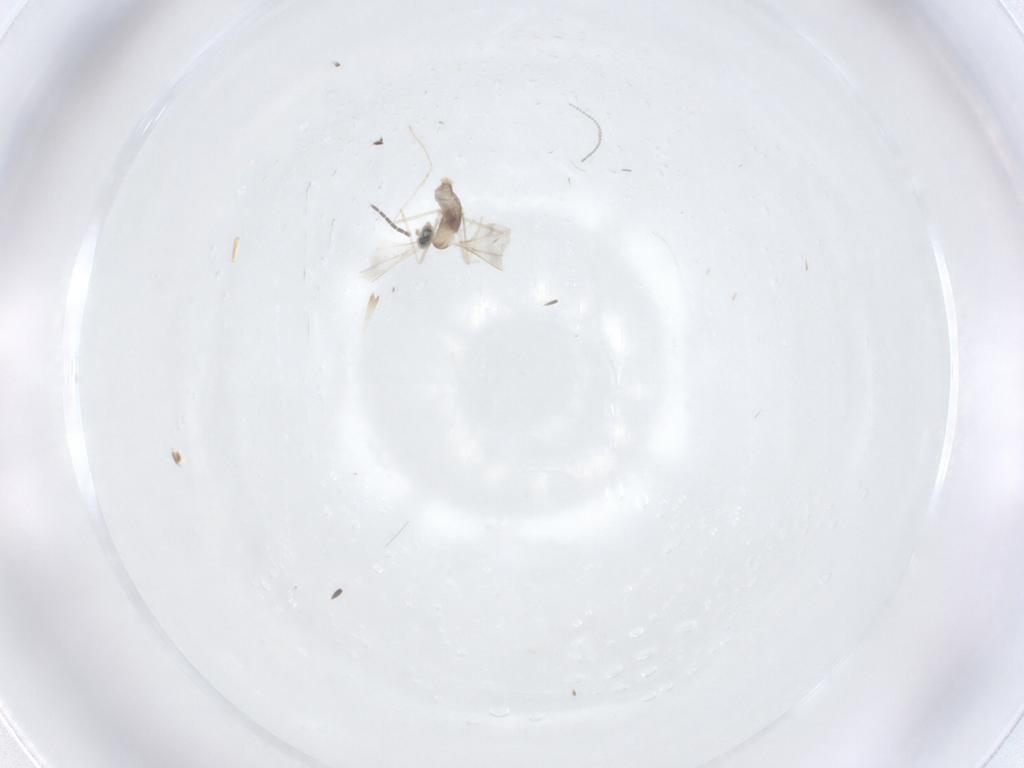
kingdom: Animalia
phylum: Arthropoda
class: Insecta
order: Diptera
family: Cecidomyiidae
